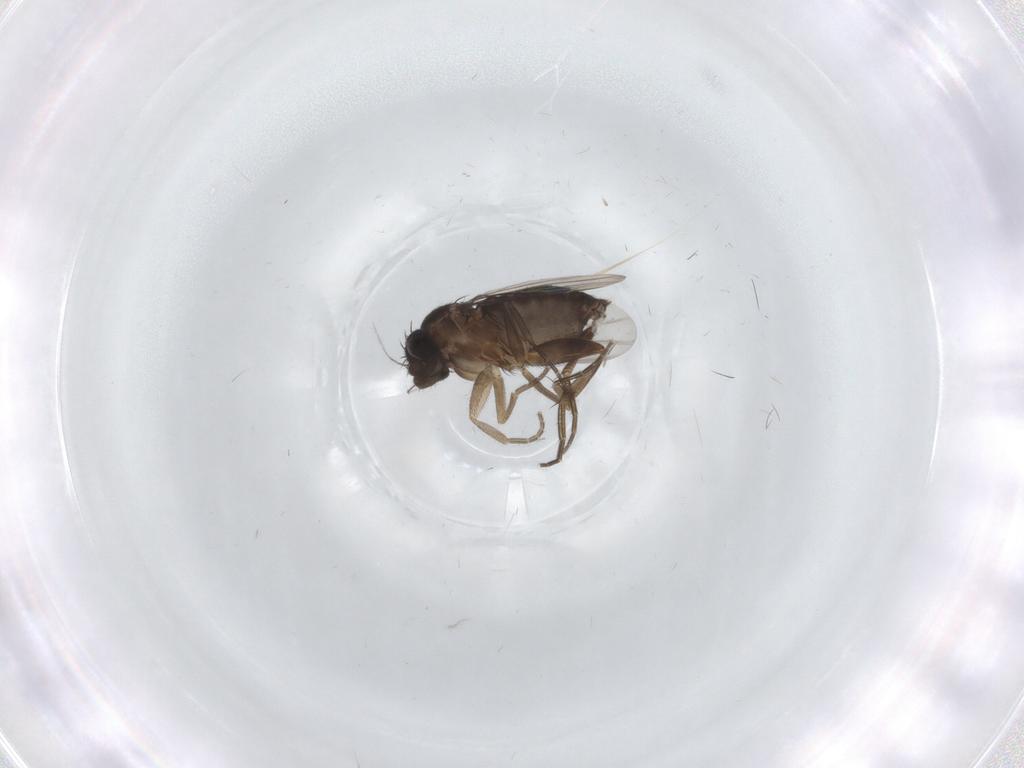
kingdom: Animalia
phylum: Arthropoda
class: Insecta
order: Diptera
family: Phoridae
